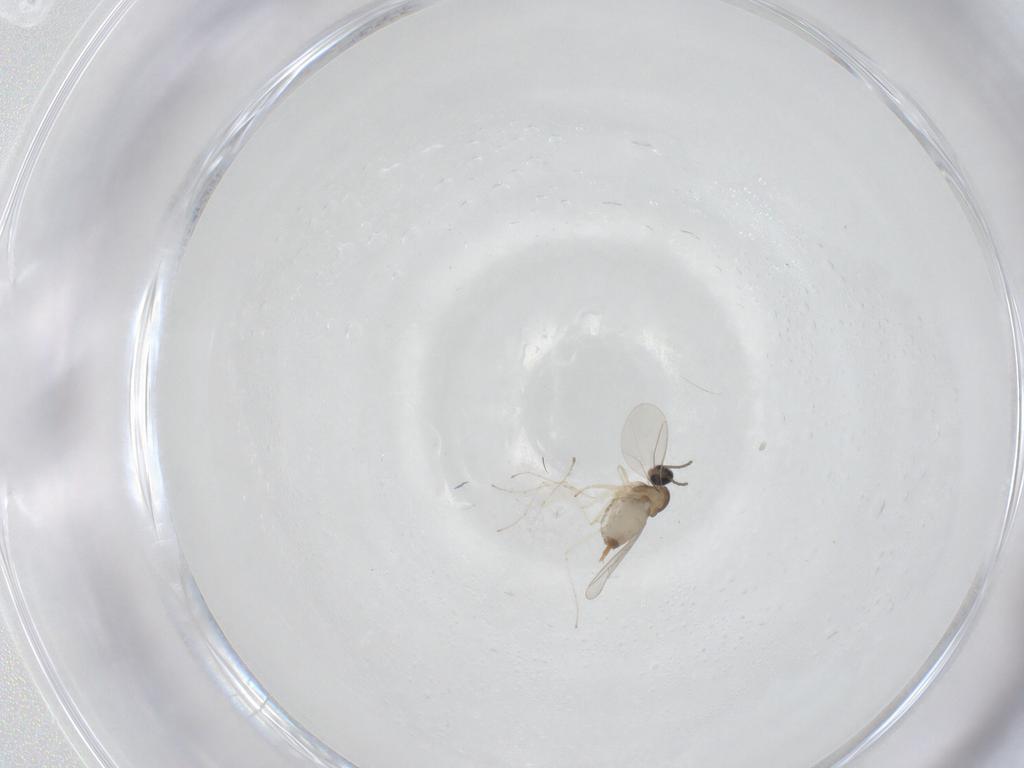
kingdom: Animalia
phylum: Arthropoda
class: Insecta
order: Diptera
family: Cecidomyiidae
